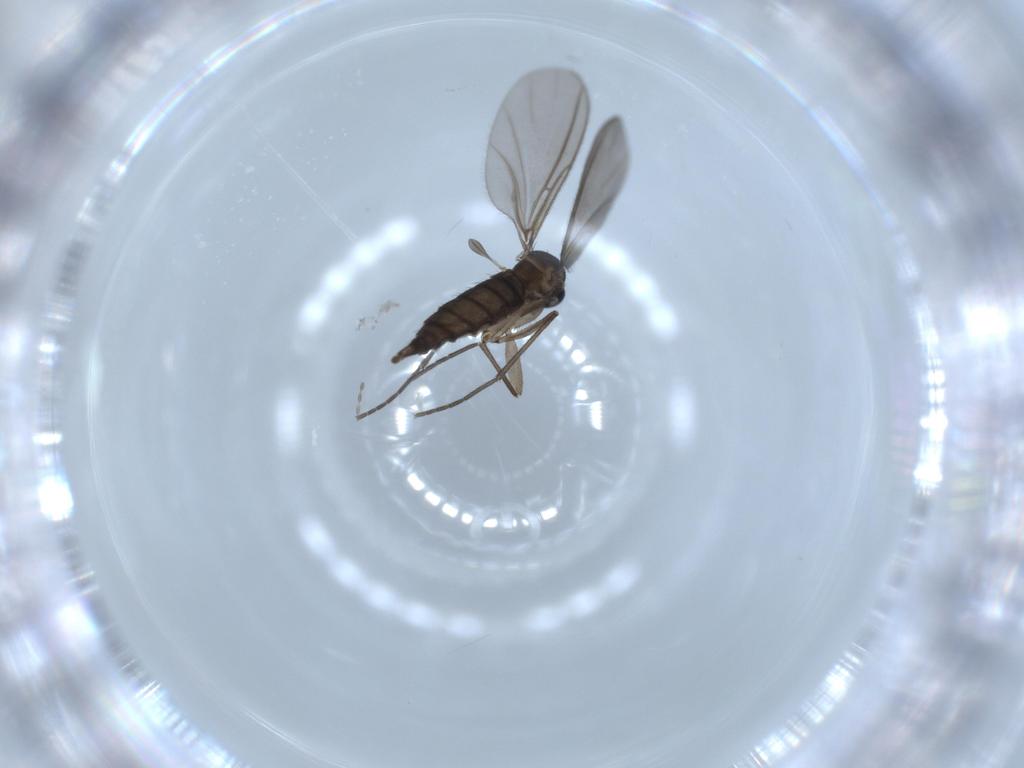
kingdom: Animalia
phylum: Arthropoda
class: Insecta
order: Diptera
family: Sciaridae
